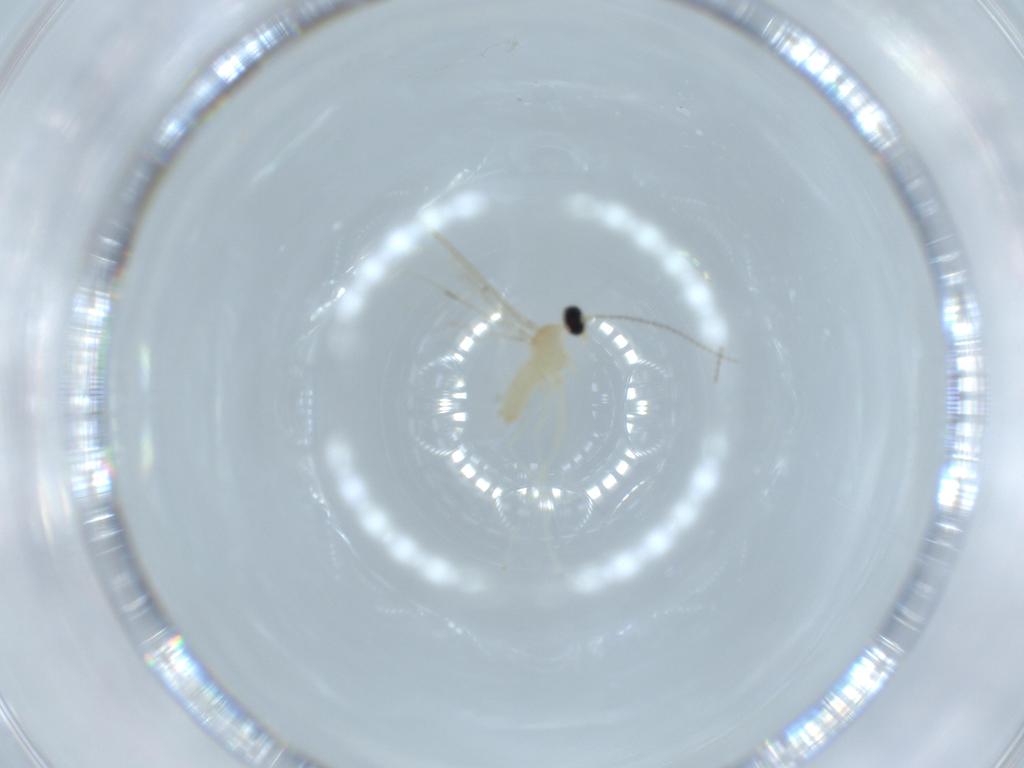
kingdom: Animalia
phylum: Arthropoda
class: Insecta
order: Diptera
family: Cecidomyiidae
